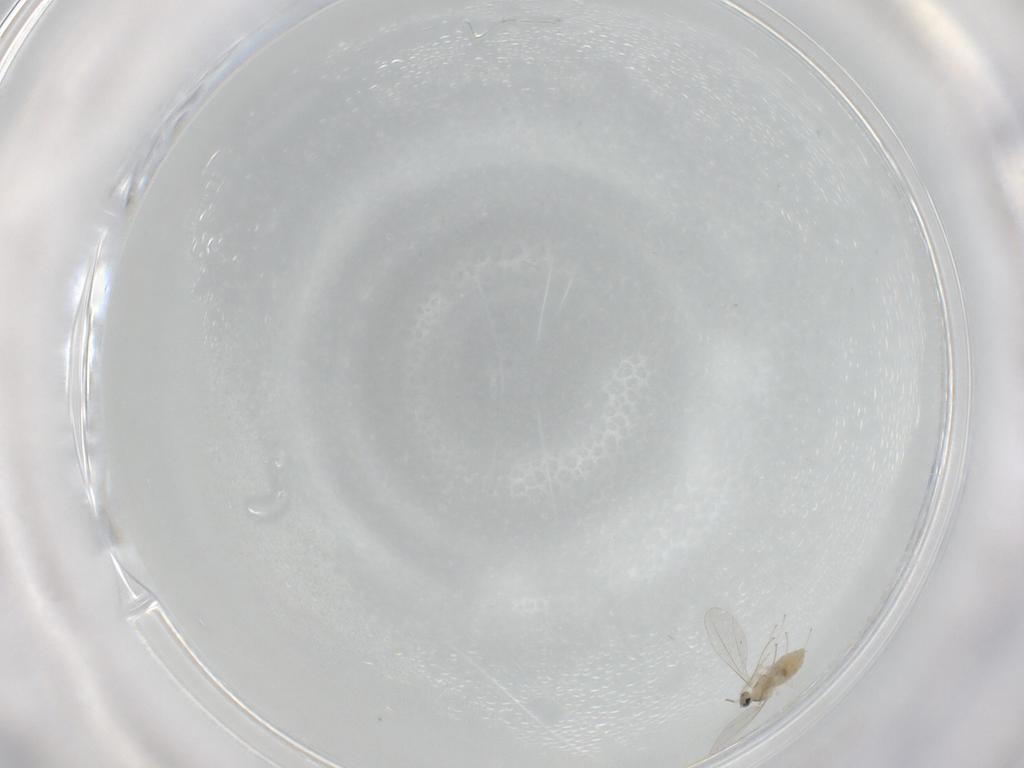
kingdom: Animalia
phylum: Arthropoda
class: Insecta
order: Diptera
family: Cecidomyiidae
